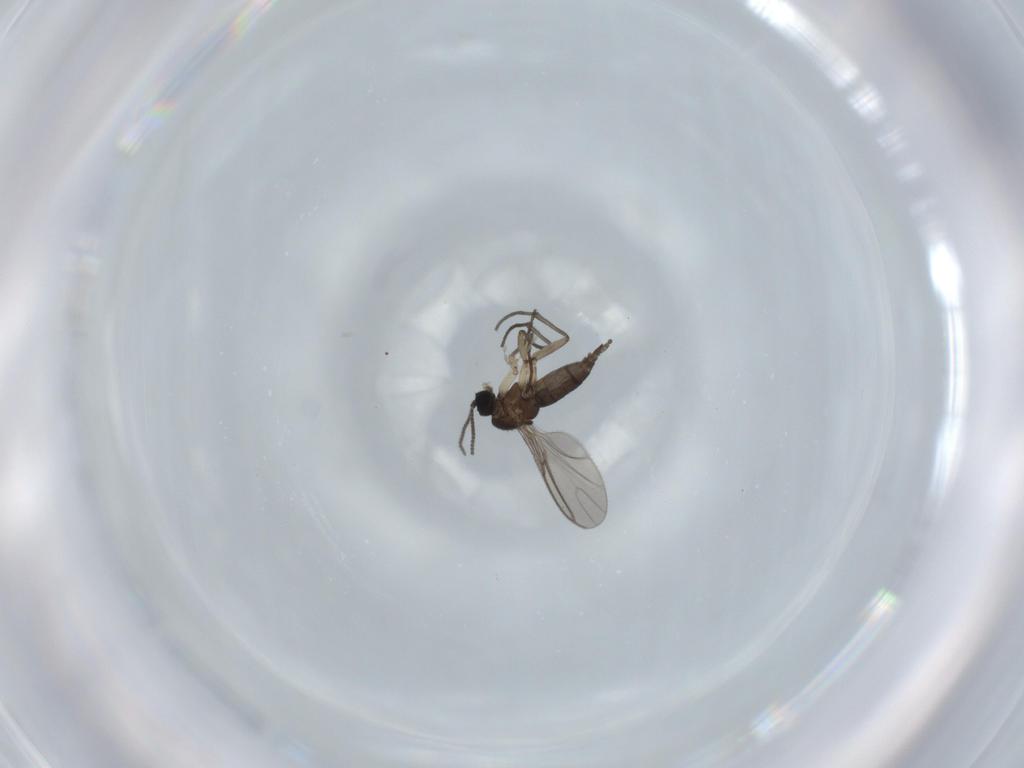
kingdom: Animalia
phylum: Arthropoda
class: Insecta
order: Diptera
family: Sciaridae
